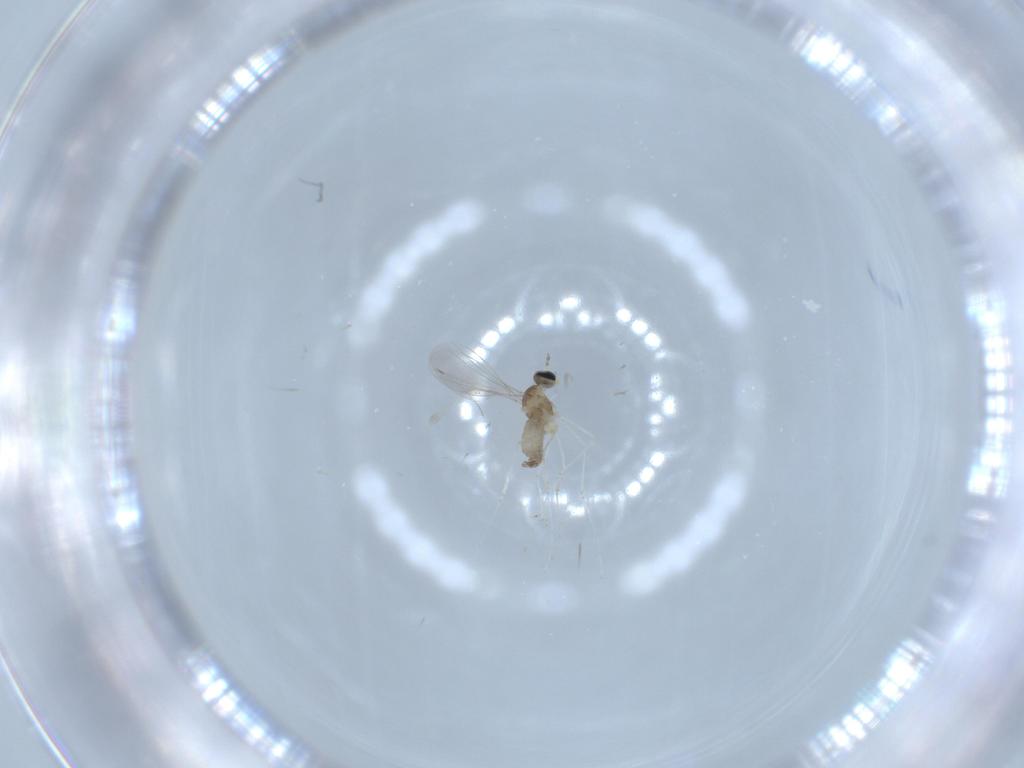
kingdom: Animalia
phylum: Arthropoda
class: Insecta
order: Diptera
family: Cecidomyiidae
